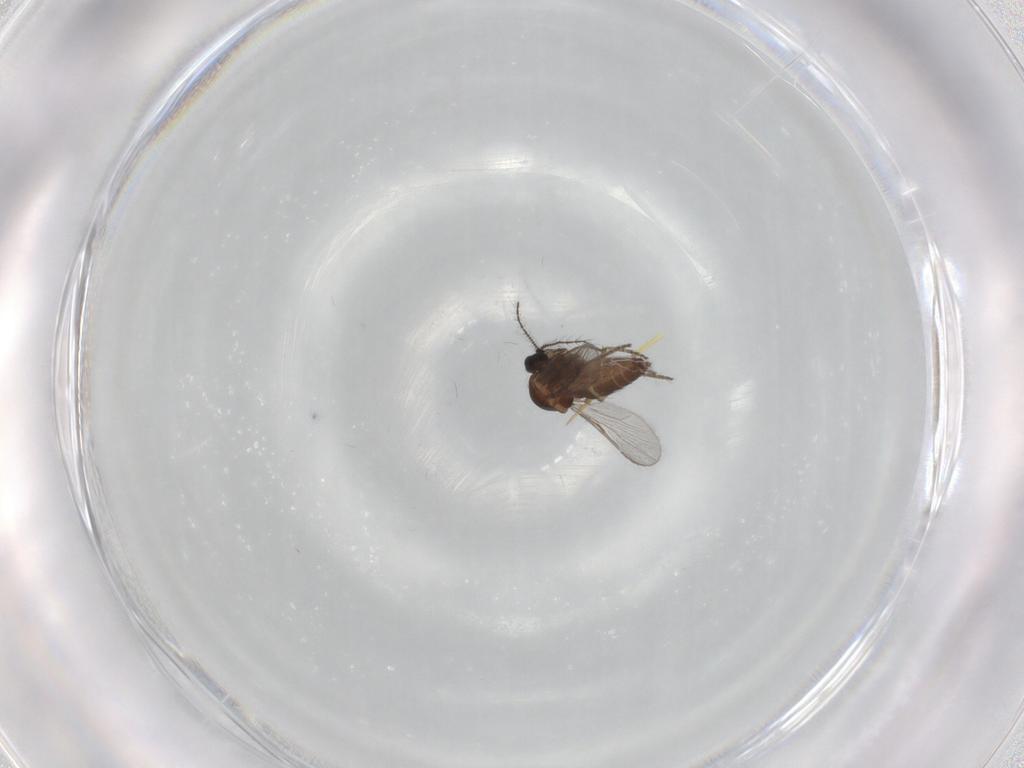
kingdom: Animalia
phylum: Arthropoda
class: Insecta
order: Diptera
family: Ceratopogonidae
